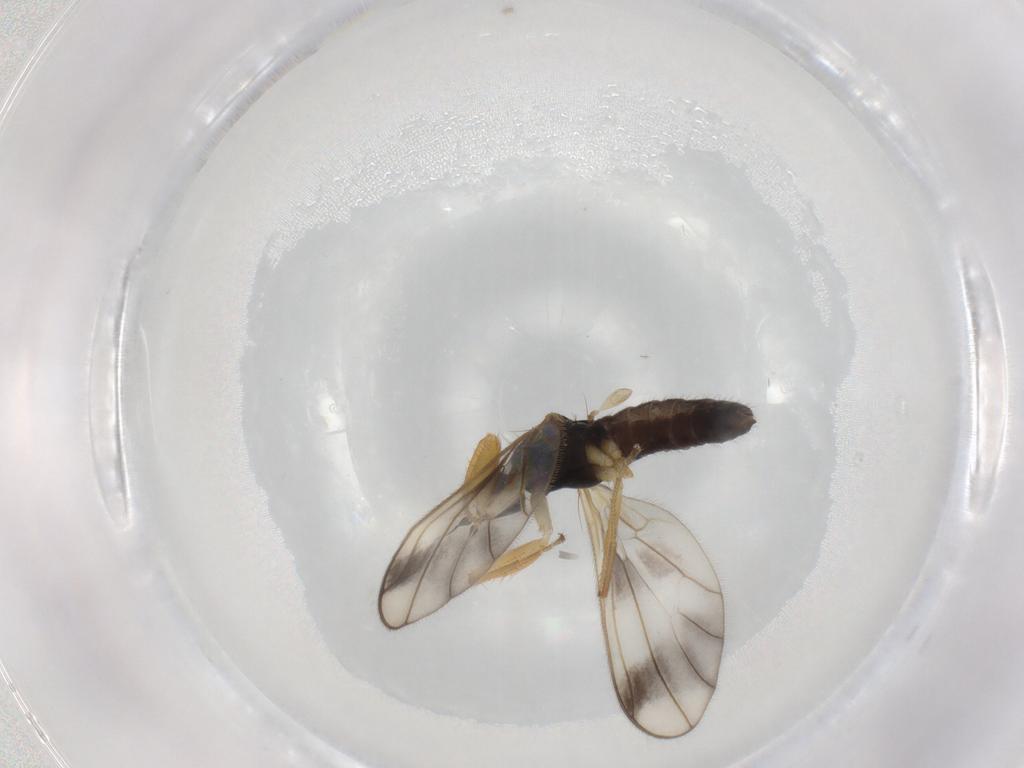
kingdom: Animalia
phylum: Arthropoda
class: Insecta
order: Diptera
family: Empididae
